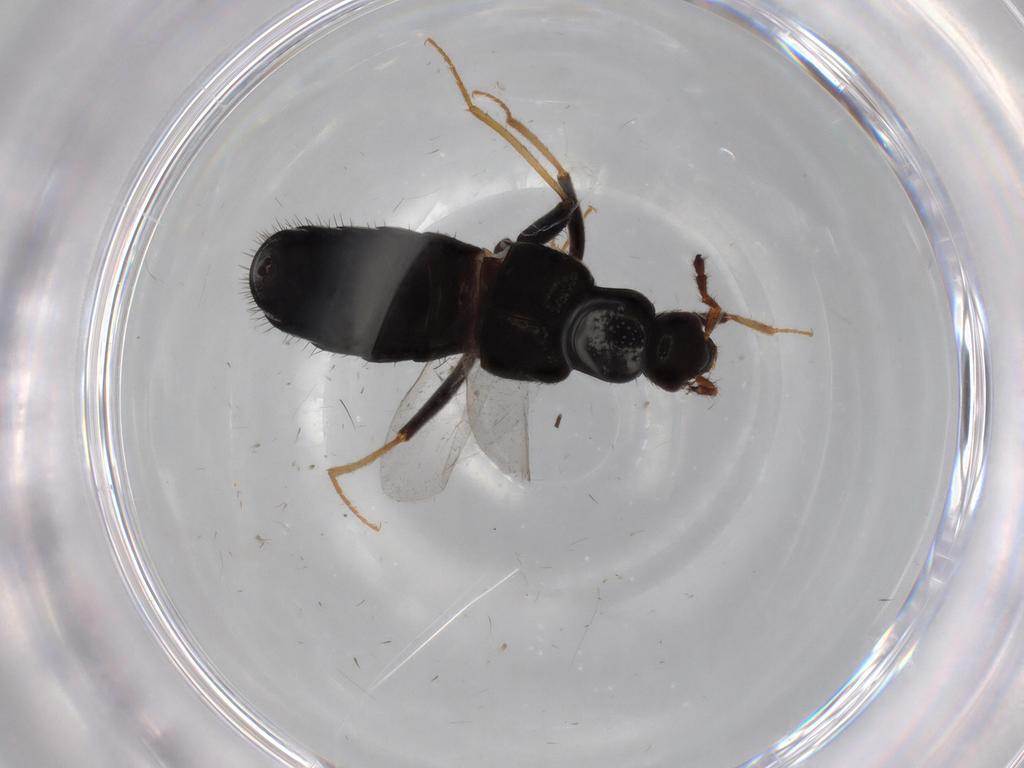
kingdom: Animalia
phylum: Arthropoda
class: Insecta
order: Coleoptera
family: Staphylinidae
